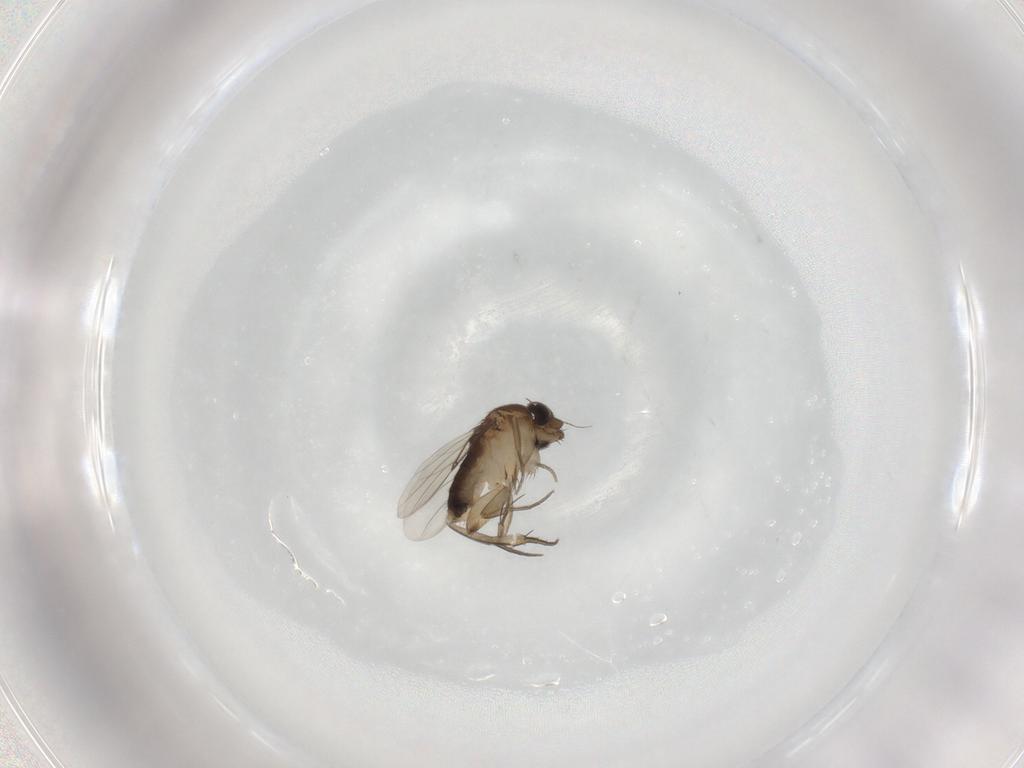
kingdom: Animalia
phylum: Arthropoda
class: Insecta
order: Diptera
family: Phoridae
